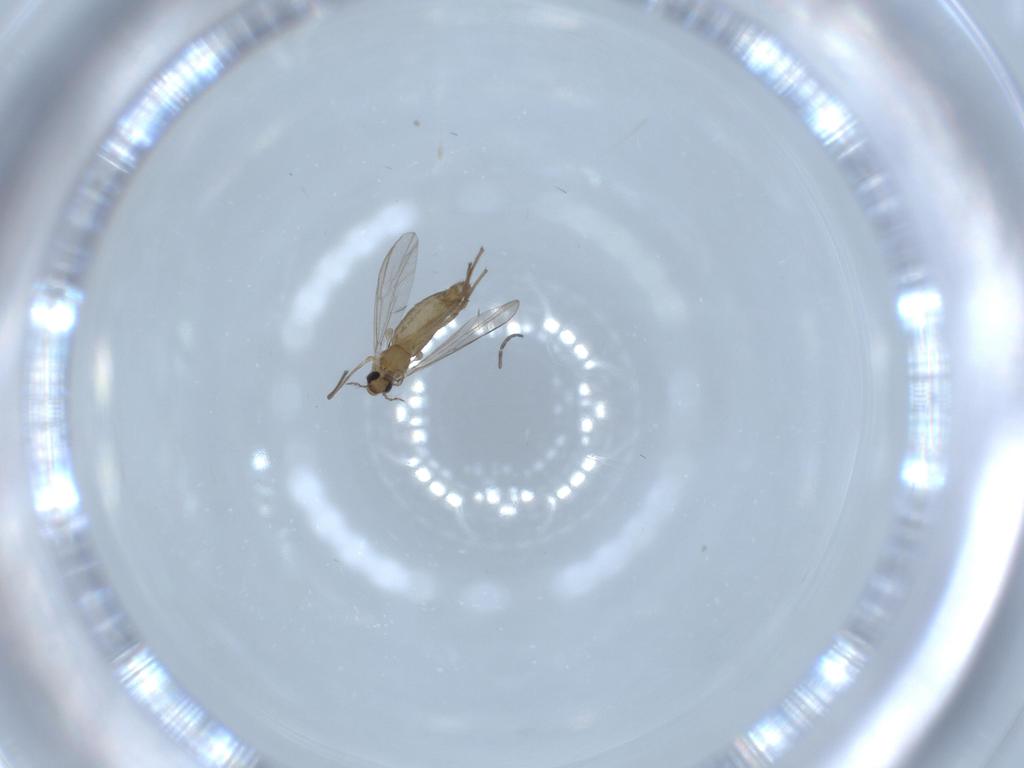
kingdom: Animalia
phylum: Arthropoda
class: Insecta
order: Diptera
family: Chironomidae
